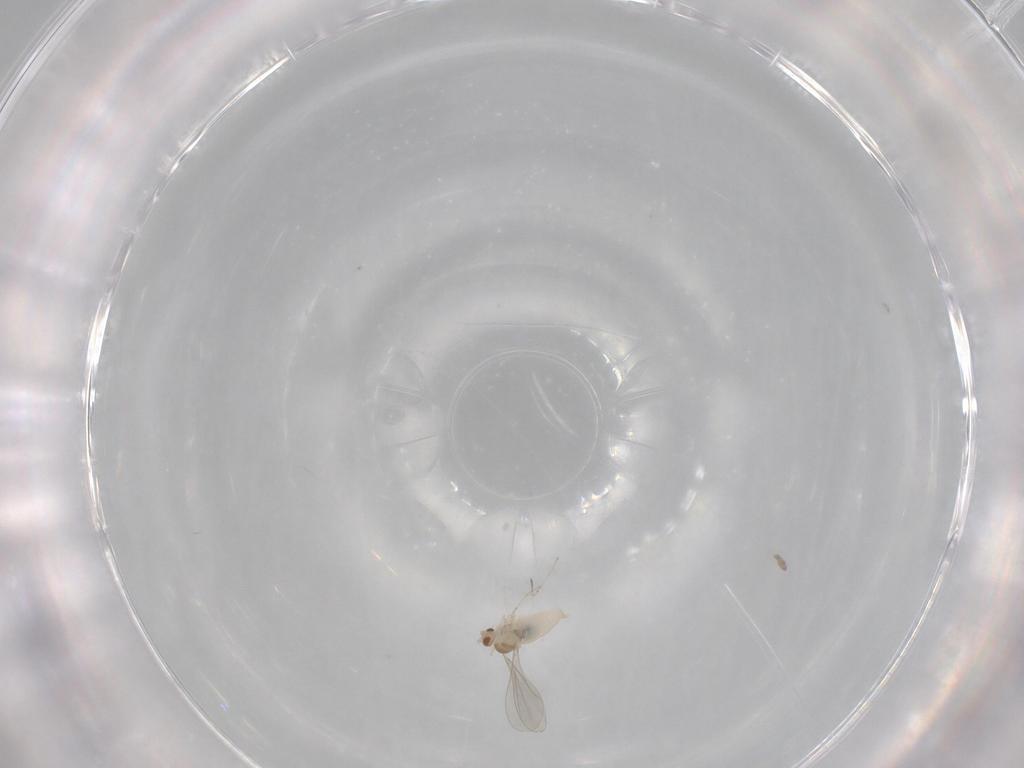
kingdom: Animalia
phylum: Arthropoda
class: Insecta
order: Diptera
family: Cecidomyiidae
